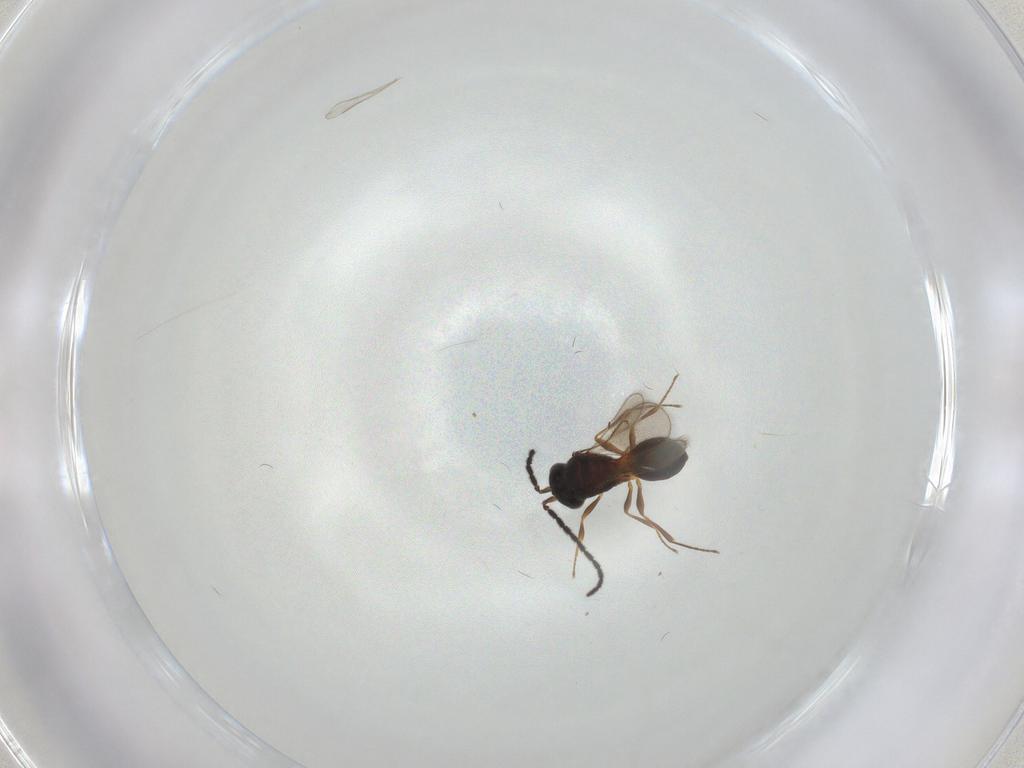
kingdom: Animalia
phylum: Arthropoda
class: Insecta
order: Hymenoptera
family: Scelionidae
